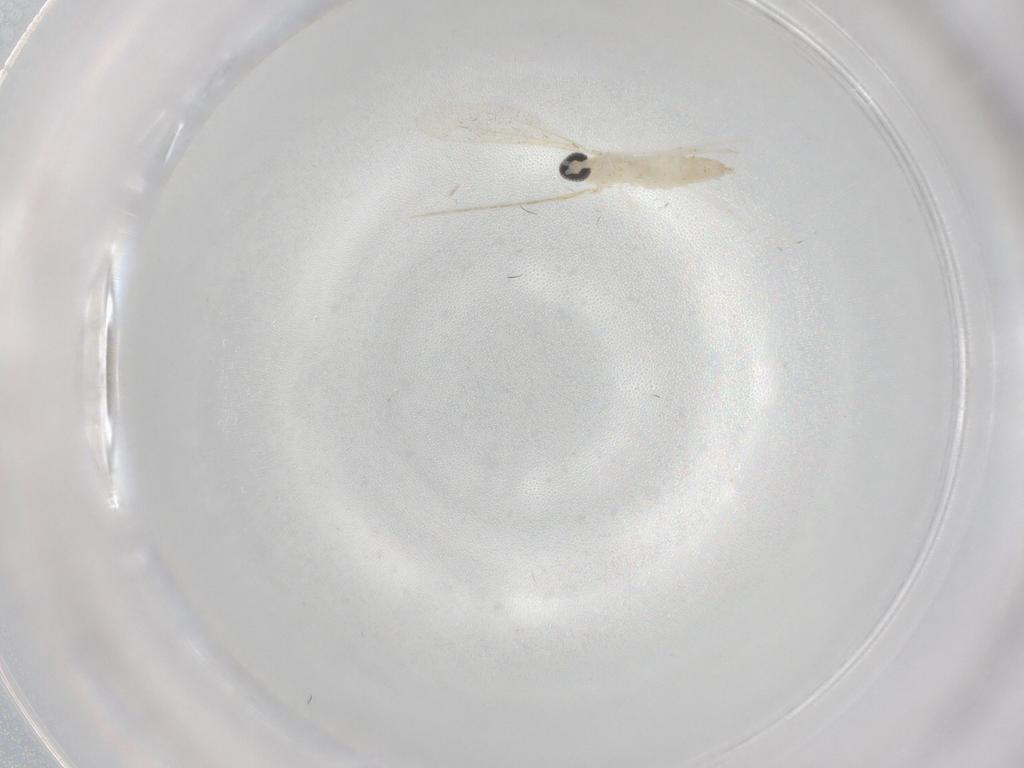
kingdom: Animalia
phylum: Arthropoda
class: Insecta
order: Diptera
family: Cecidomyiidae
